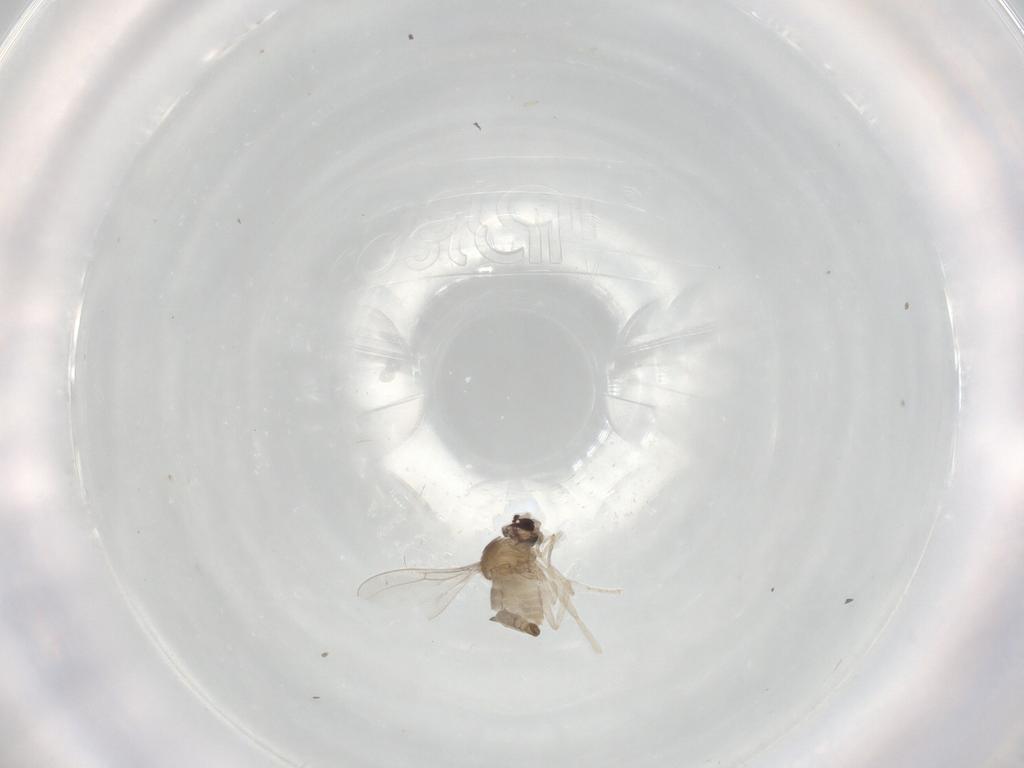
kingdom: Animalia
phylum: Arthropoda
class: Insecta
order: Diptera
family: Cecidomyiidae
